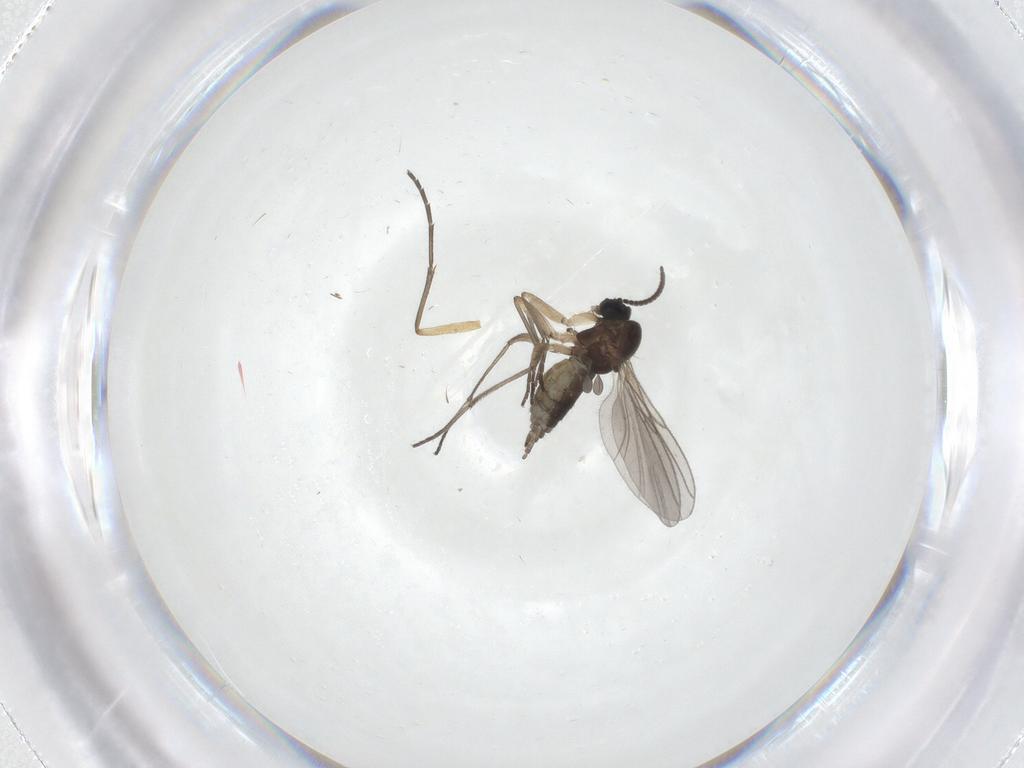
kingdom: Animalia
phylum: Arthropoda
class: Insecta
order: Diptera
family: Sciaridae
